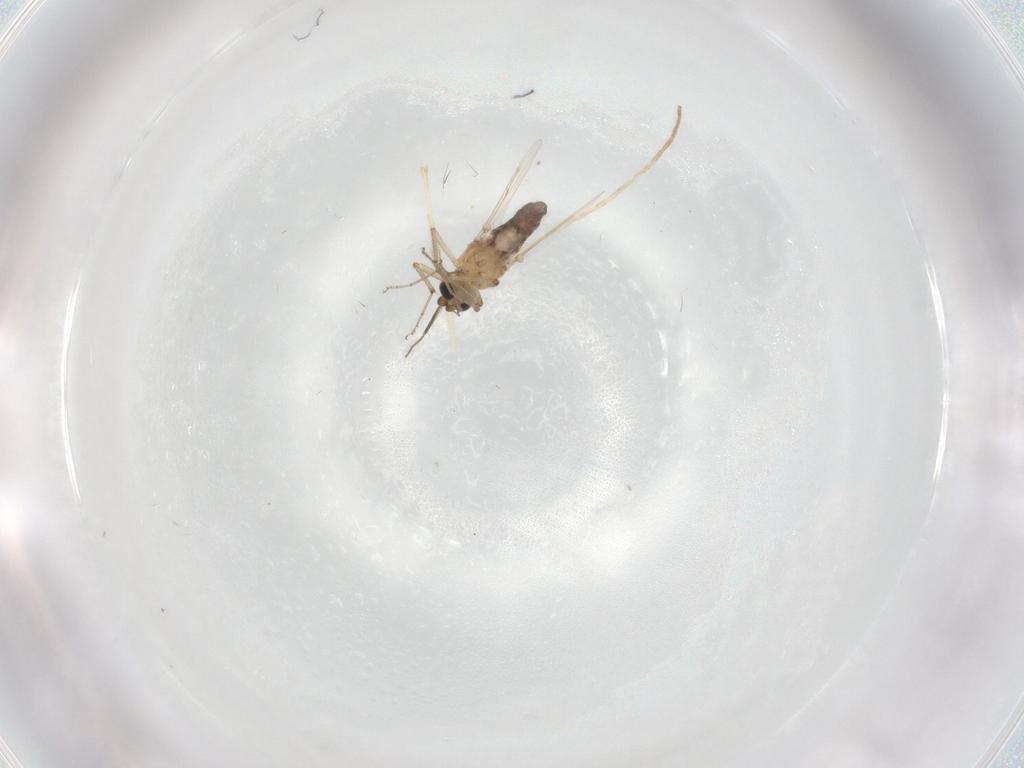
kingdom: Animalia
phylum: Arthropoda
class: Insecta
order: Diptera
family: Ceratopogonidae
